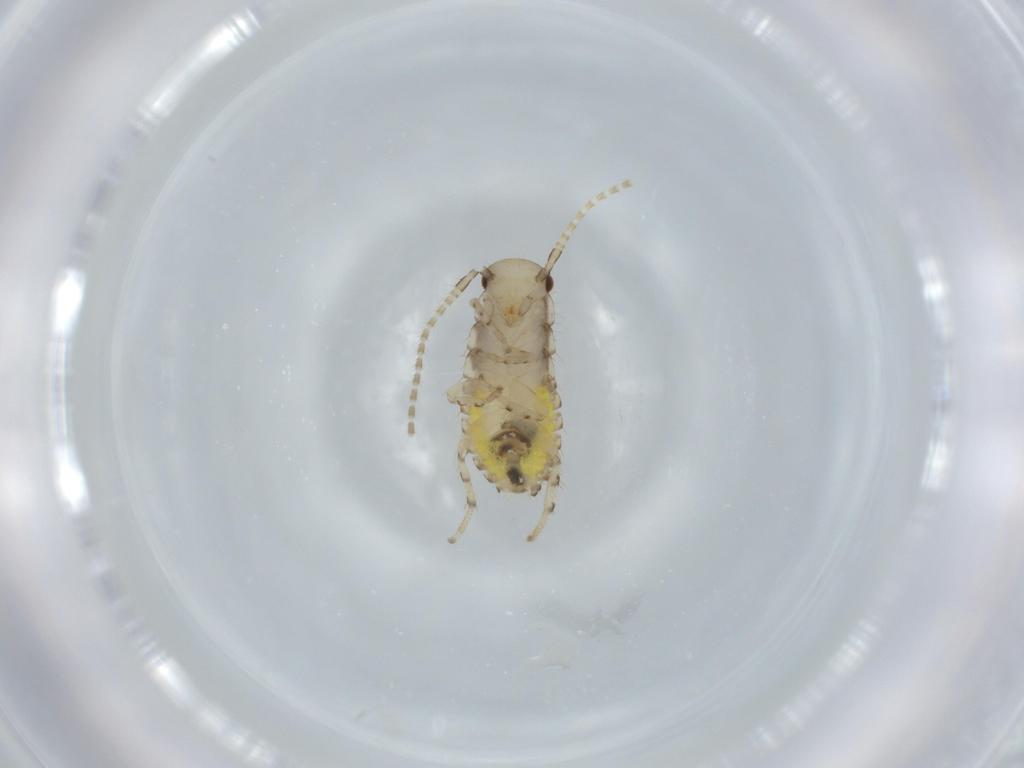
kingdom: Animalia
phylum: Arthropoda
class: Insecta
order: Blattodea
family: Ectobiidae
